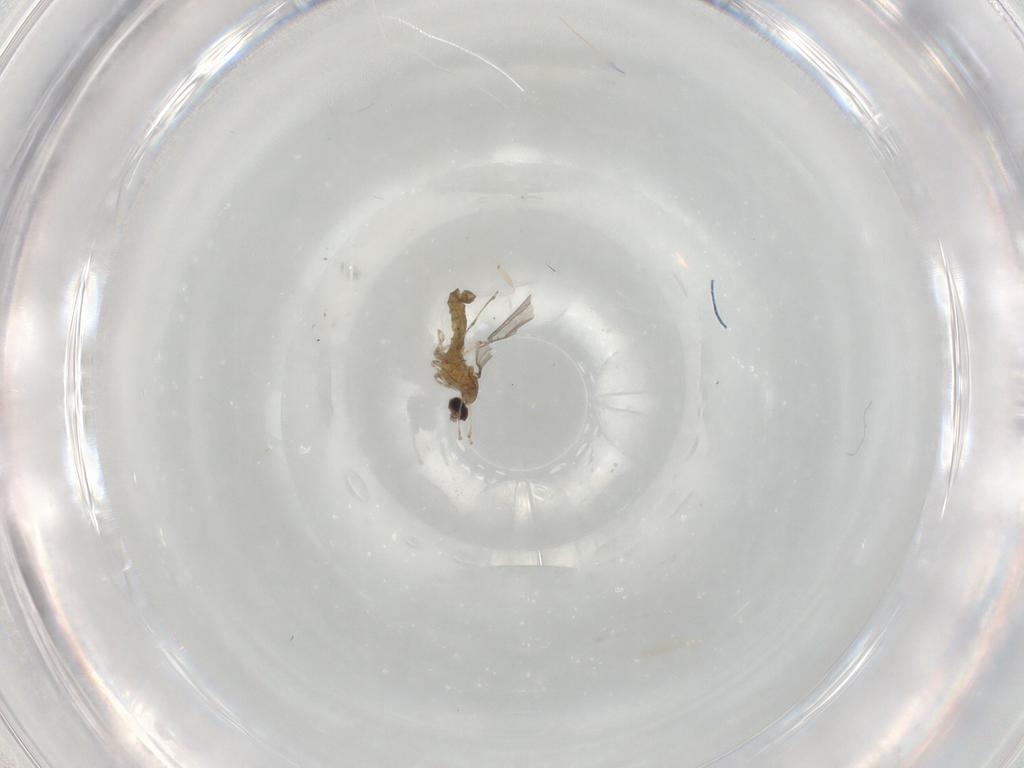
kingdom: Animalia
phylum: Arthropoda
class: Insecta
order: Diptera
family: Cecidomyiidae
